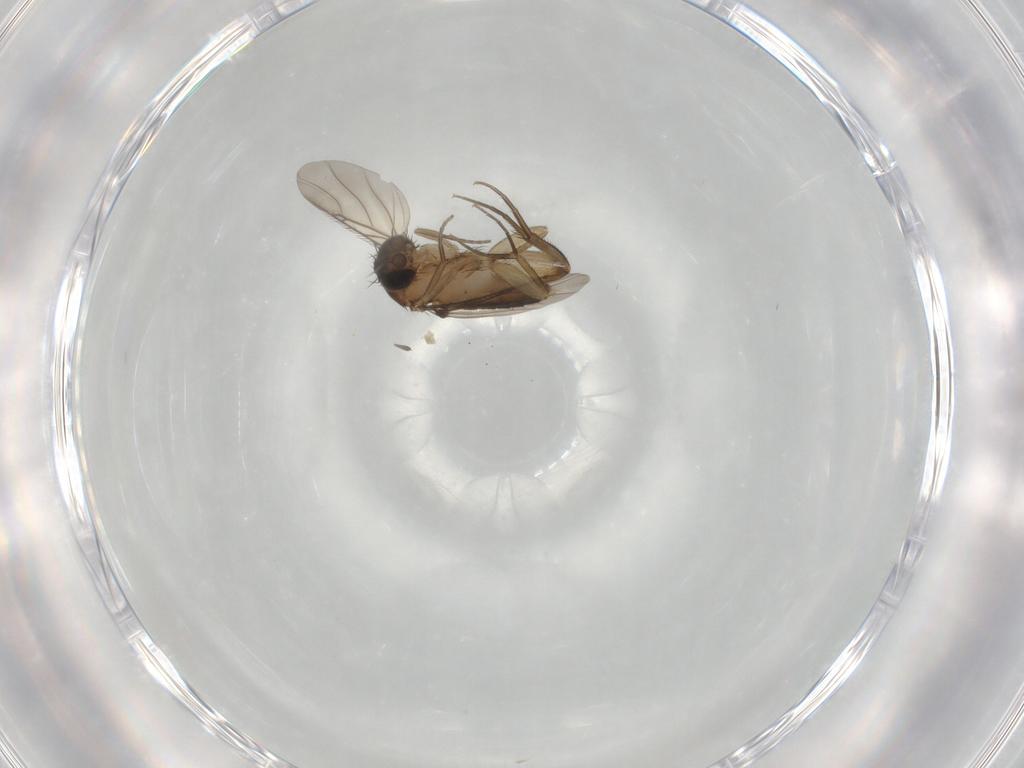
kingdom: Animalia
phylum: Arthropoda
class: Insecta
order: Diptera
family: Phoridae
